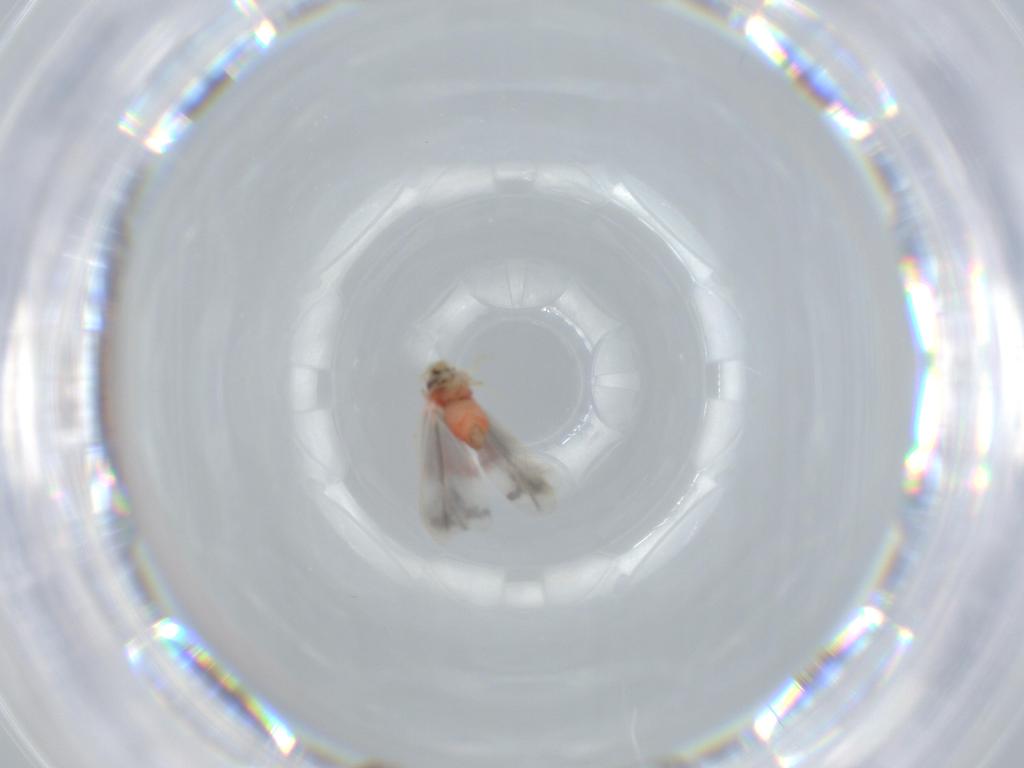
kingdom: Animalia
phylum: Arthropoda
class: Insecta
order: Hemiptera
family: Aleyrodidae
